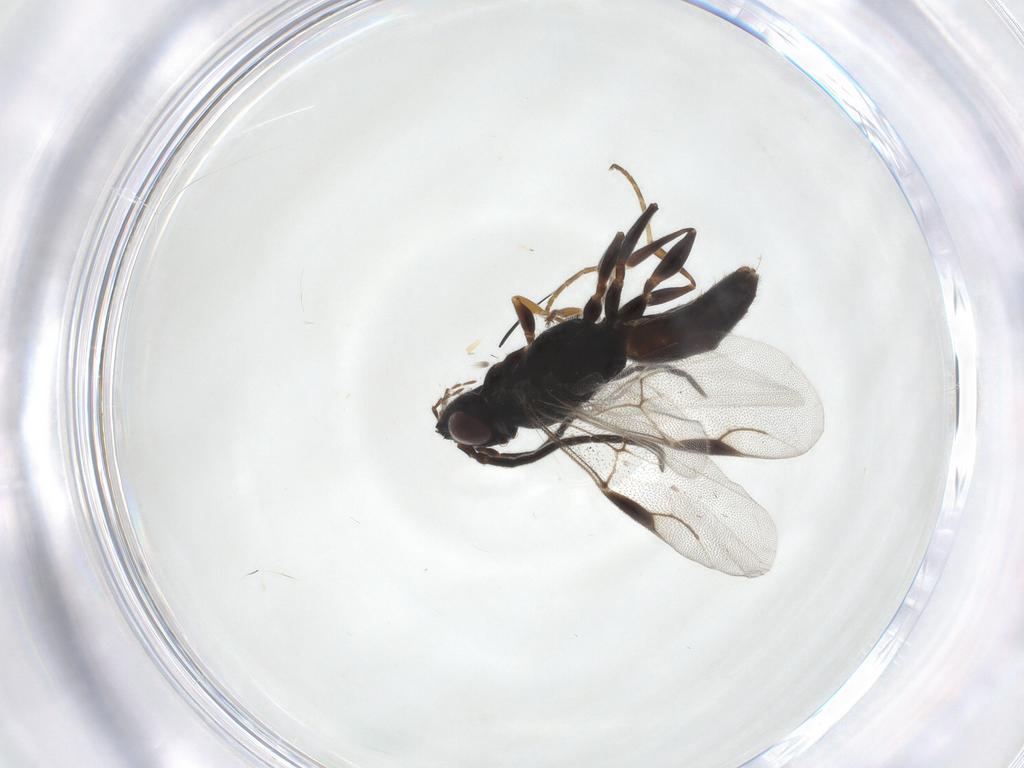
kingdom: Animalia
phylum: Arthropoda
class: Insecta
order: Hymenoptera
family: Dryinidae
